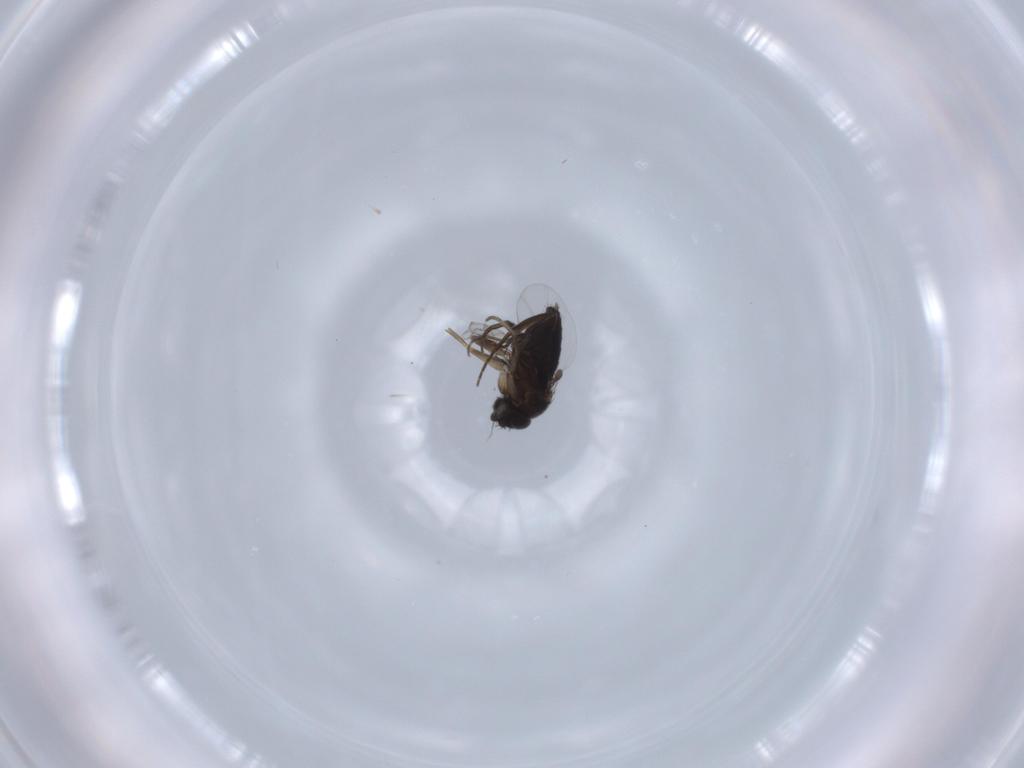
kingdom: Animalia
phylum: Arthropoda
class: Insecta
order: Diptera
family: Phoridae
